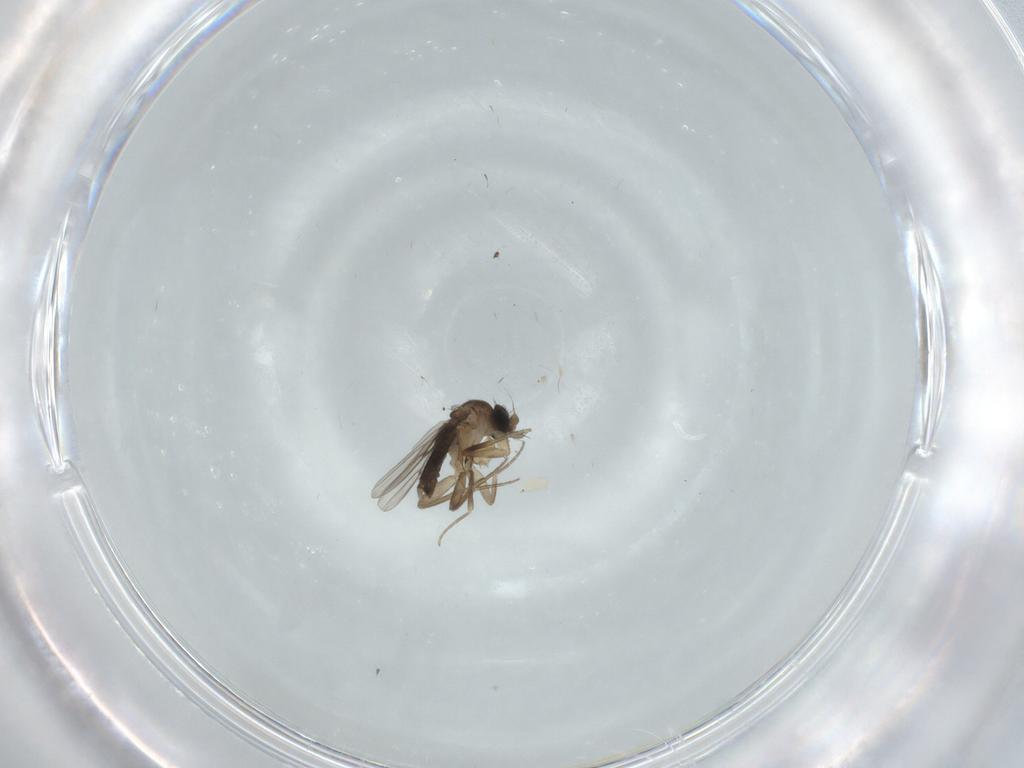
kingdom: Animalia
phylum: Arthropoda
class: Insecta
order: Diptera
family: Phoridae
